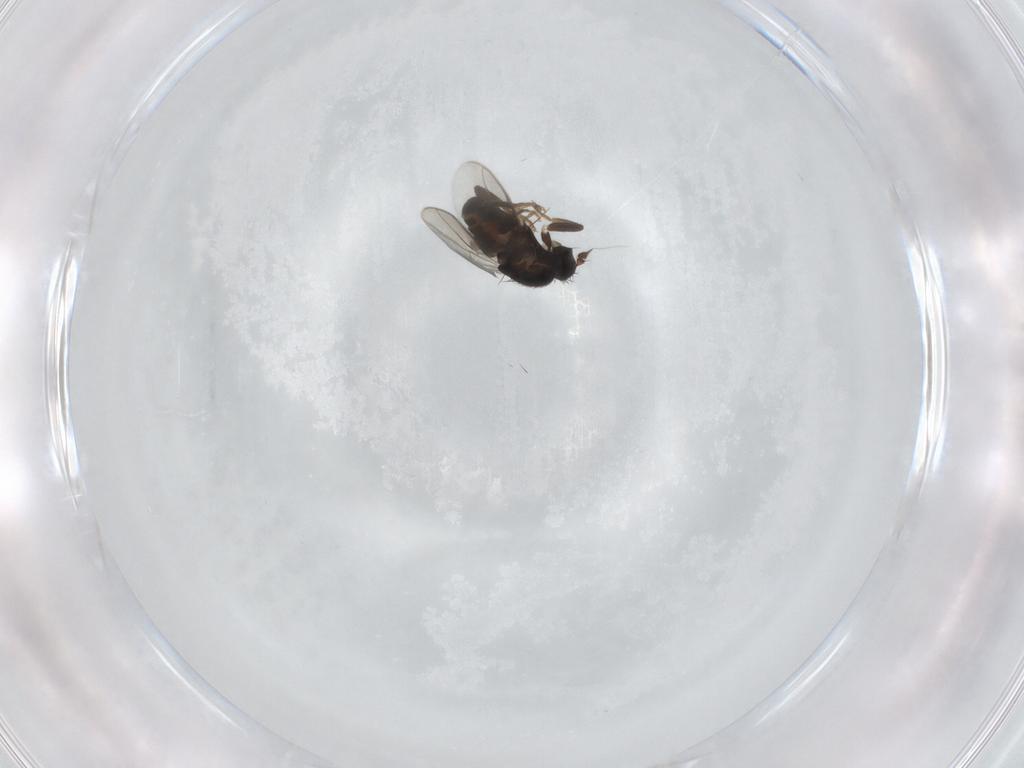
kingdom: Animalia
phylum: Arthropoda
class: Insecta
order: Diptera
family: Sphaeroceridae
